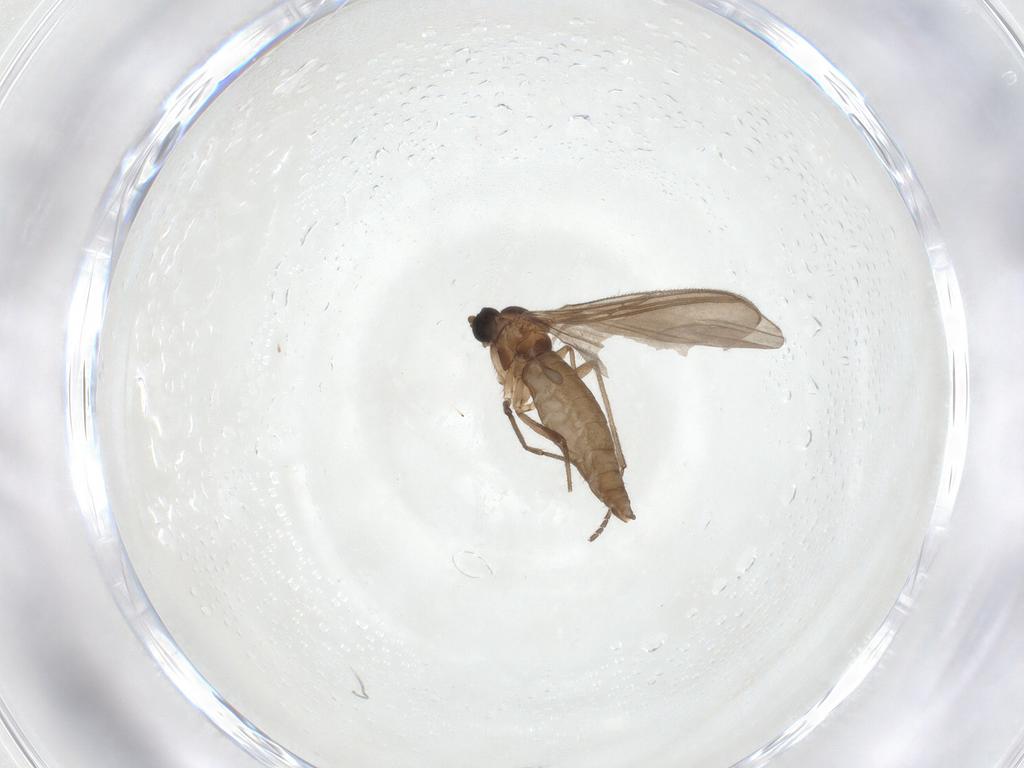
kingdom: Animalia
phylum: Arthropoda
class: Insecta
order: Diptera
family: Sciaridae
